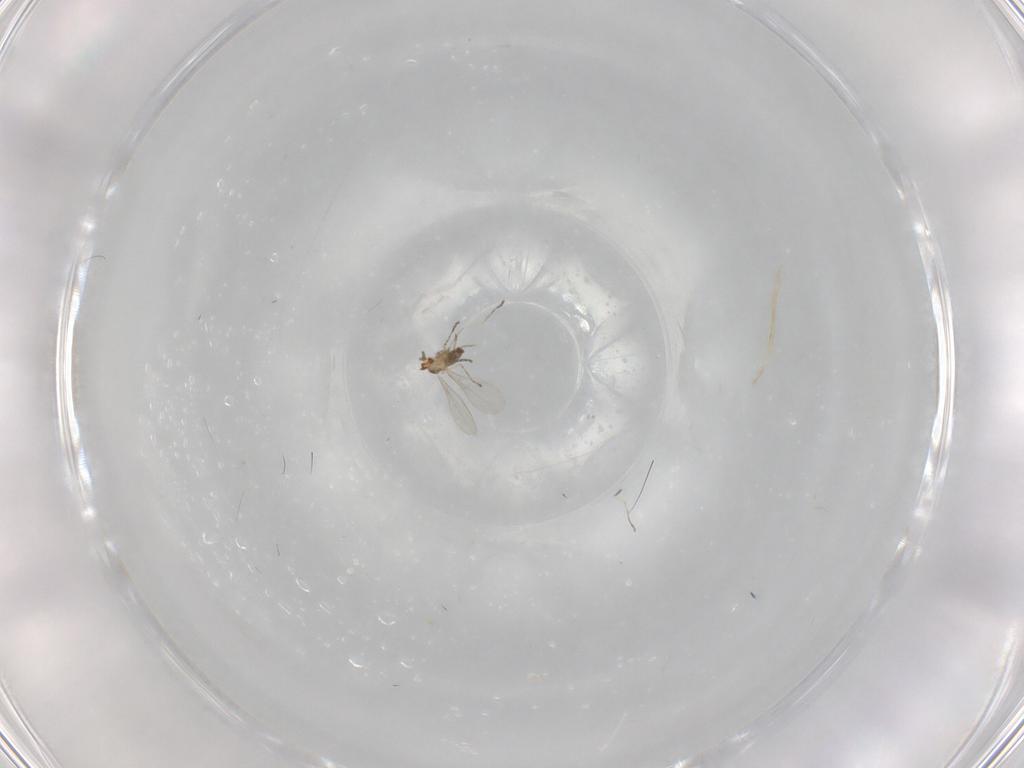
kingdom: Animalia
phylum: Arthropoda
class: Insecta
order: Diptera
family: Cecidomyiidae
